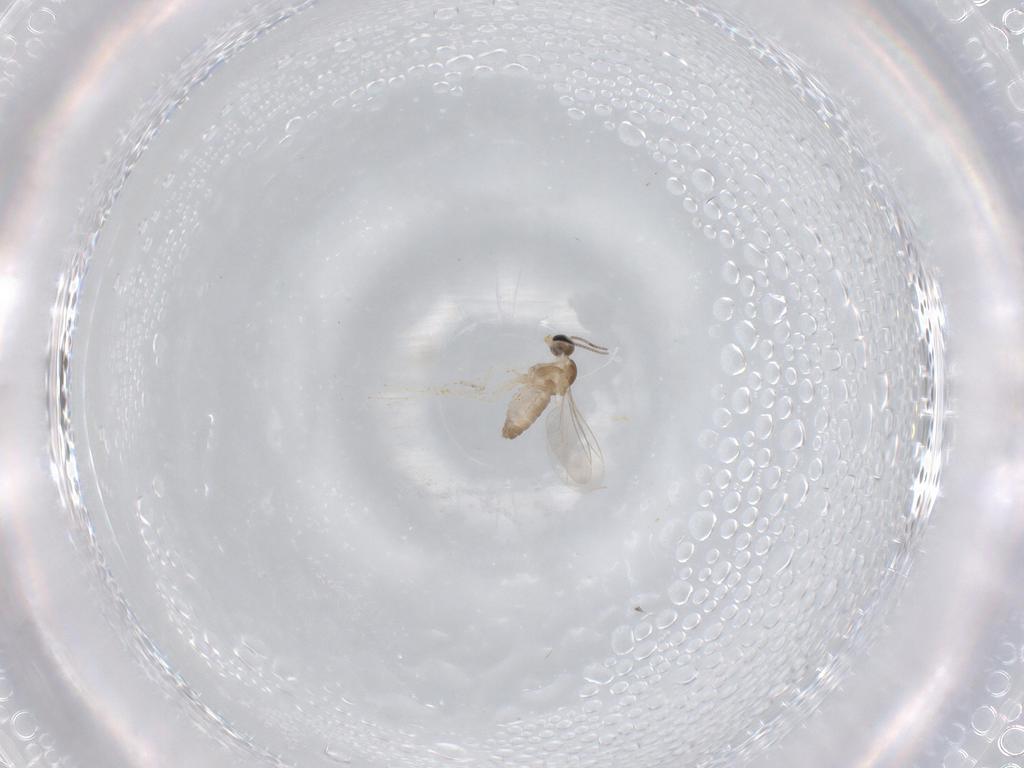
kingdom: Animalia
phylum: Arthropoda
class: Insecta
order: Diptera
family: Cecidomyiidae
